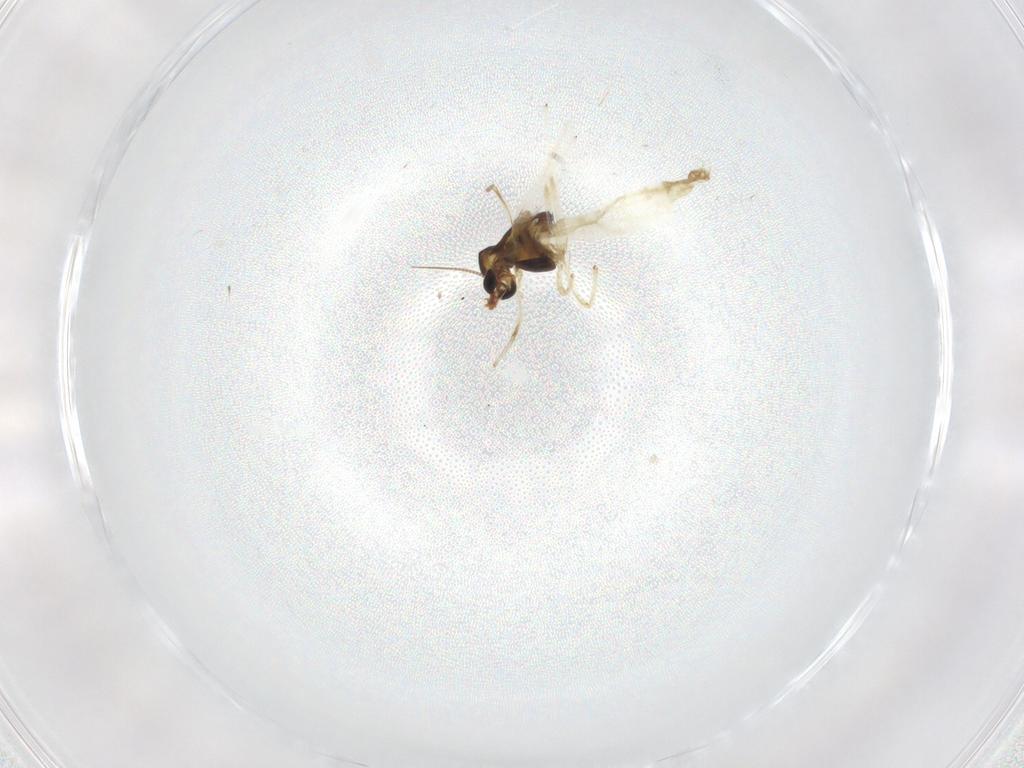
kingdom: Animalia
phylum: Arthropoda
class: Insecta
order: Diptera
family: Chironomidae
